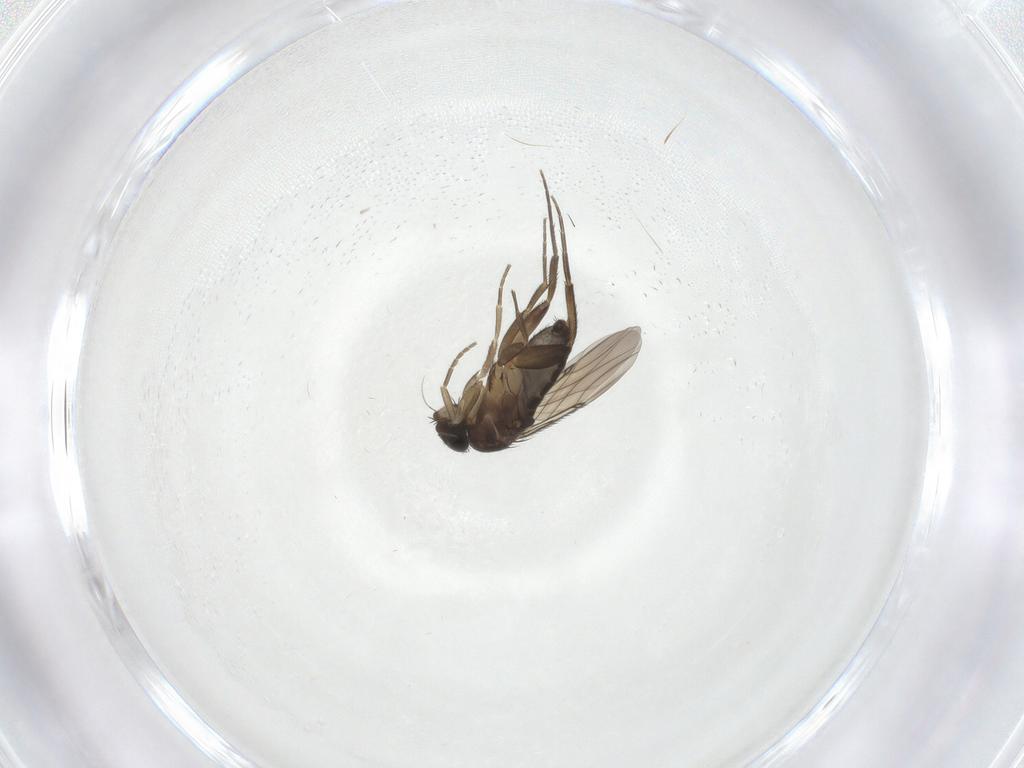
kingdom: Animalia
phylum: Arthropoda
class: Insecta
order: Diptera
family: Phoridae
